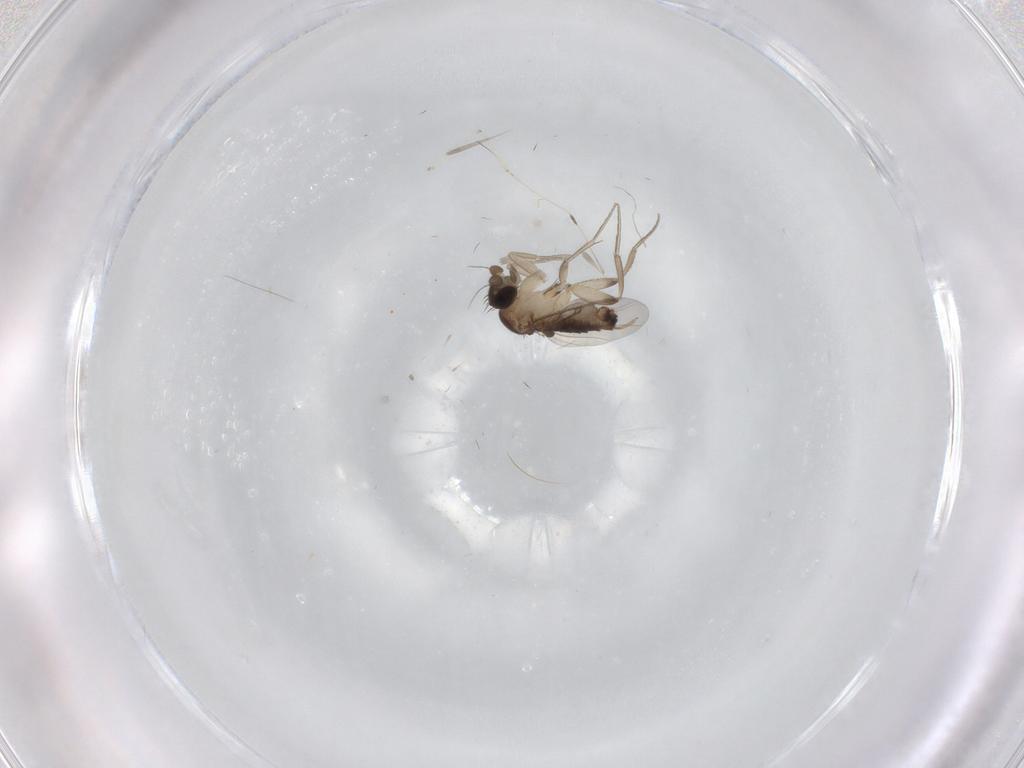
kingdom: Animalia
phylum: Arthropoda
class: Insecta
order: Diptera
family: Phoridae
